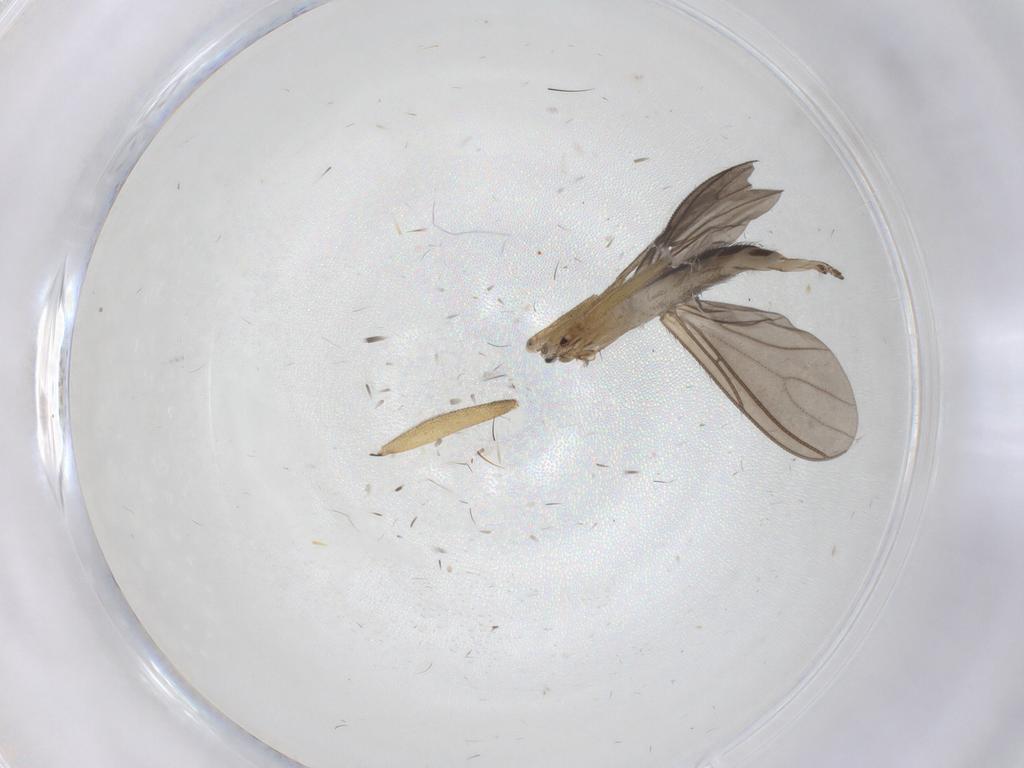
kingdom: Animalia
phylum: Arthropoda
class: Insecta
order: Diptera
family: Sciaridae
